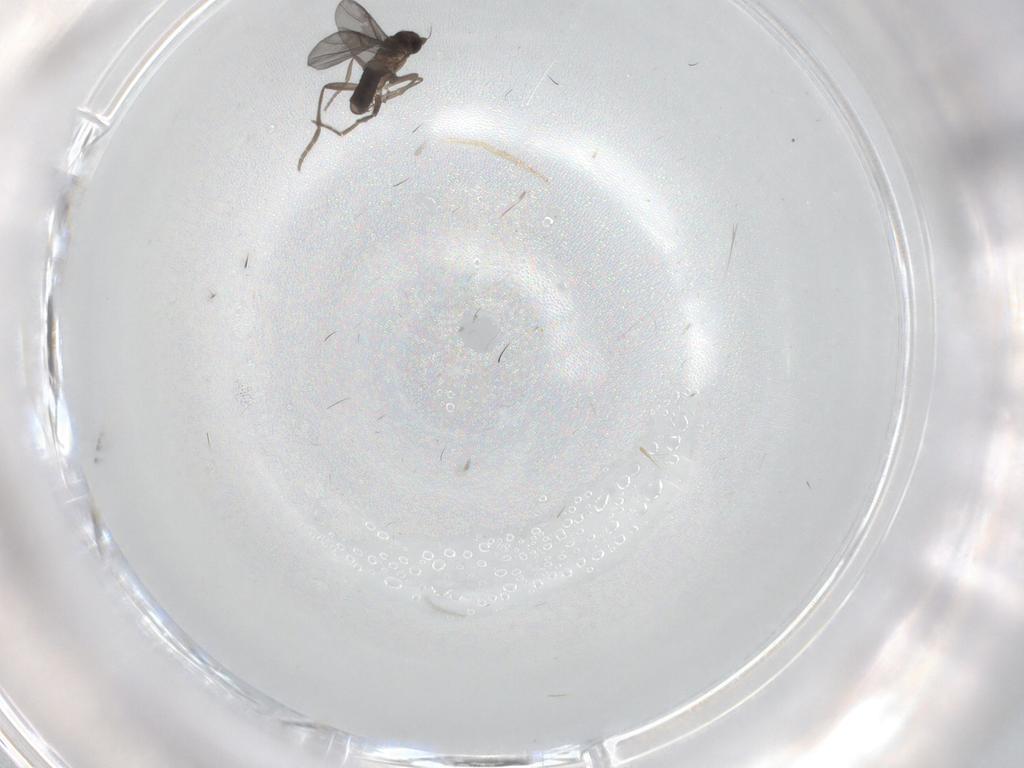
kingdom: Animalia
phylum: Arthropoda
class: Insecta
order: Diptera
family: Phoridae
